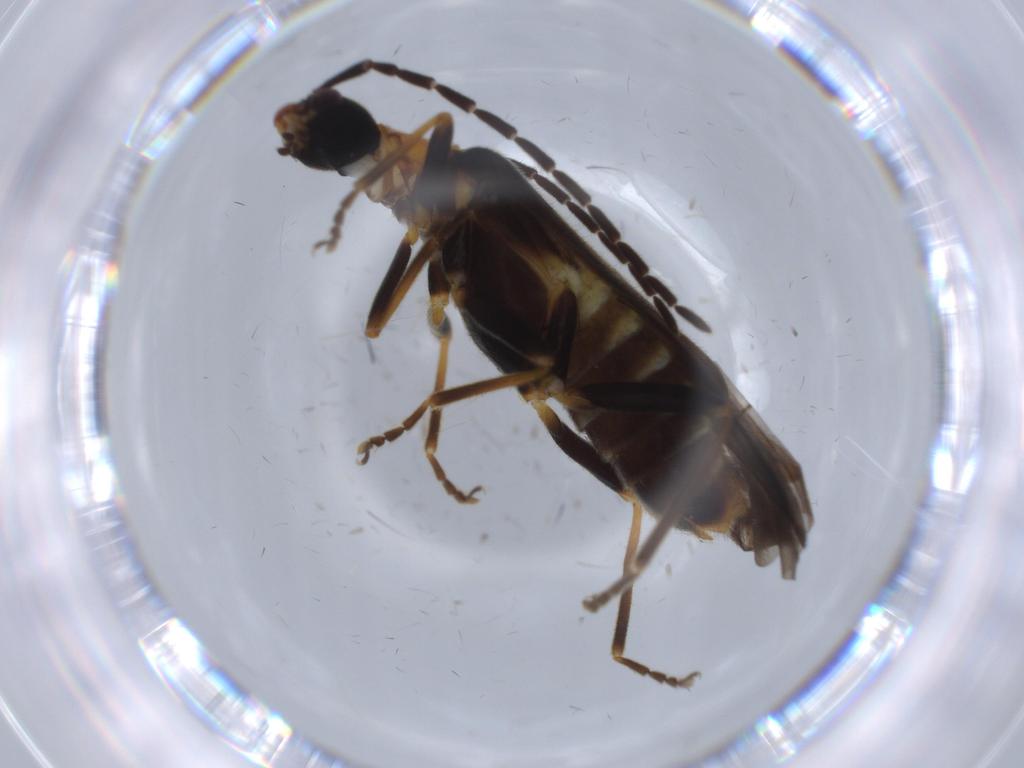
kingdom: Animalia
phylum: Arthropoda
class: Insecta
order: Coleoptera
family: Cantharidae
